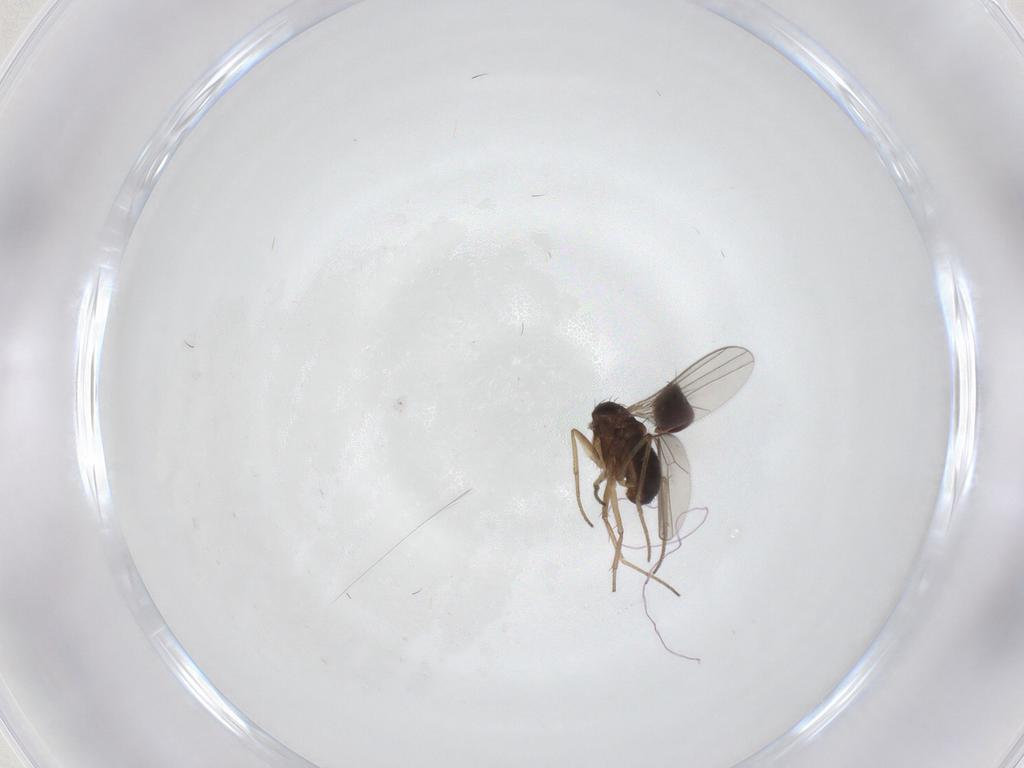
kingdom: Animalia
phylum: Arthropoda
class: Insecta
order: Diptera
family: Dolichopodidae
